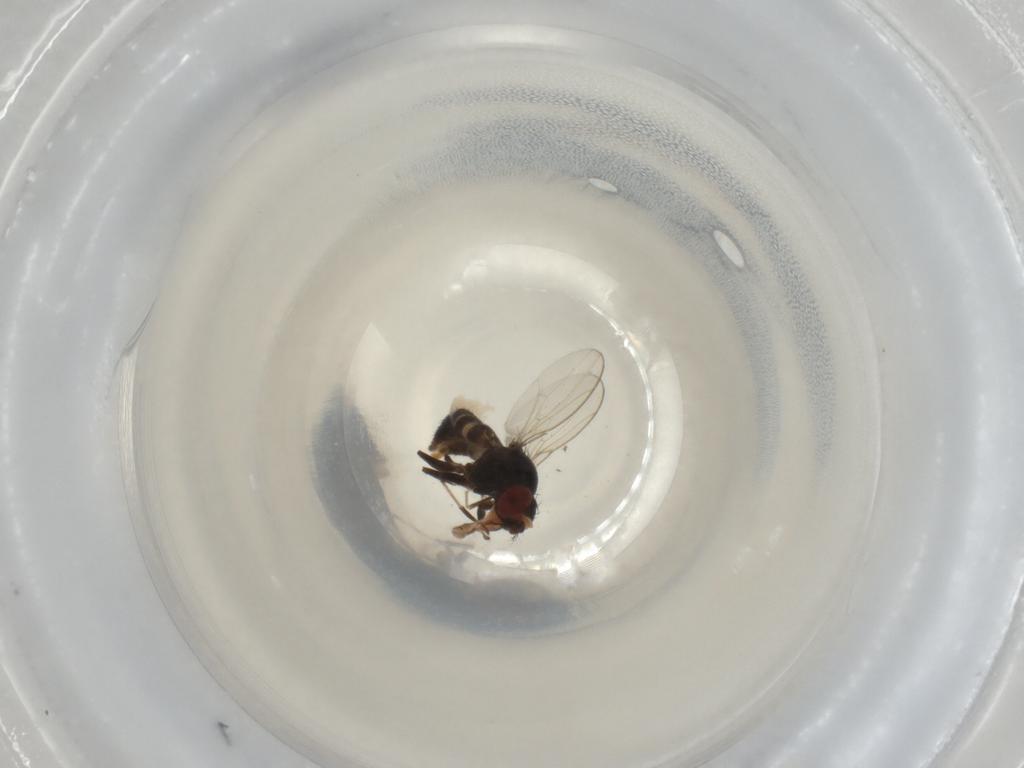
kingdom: Animalia
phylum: Arthropoda
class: Insecta
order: Diptera
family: Drosophilidae
